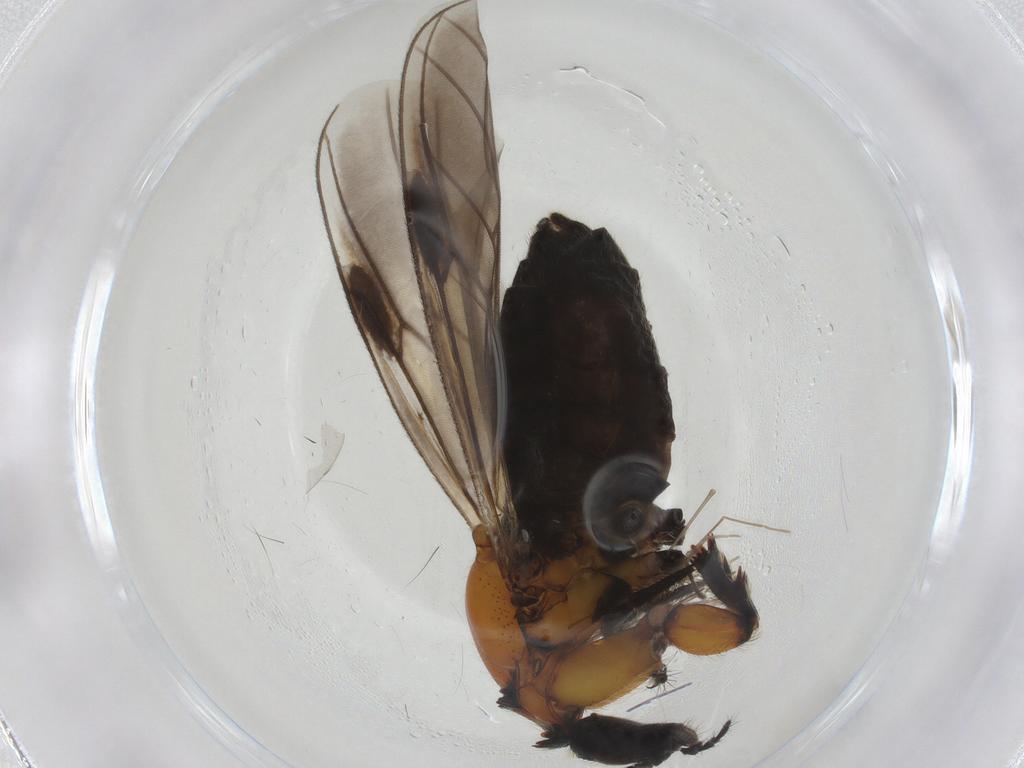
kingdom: Animalia
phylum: Arthropoda
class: Insecta
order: Diptera
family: Bibionidae
